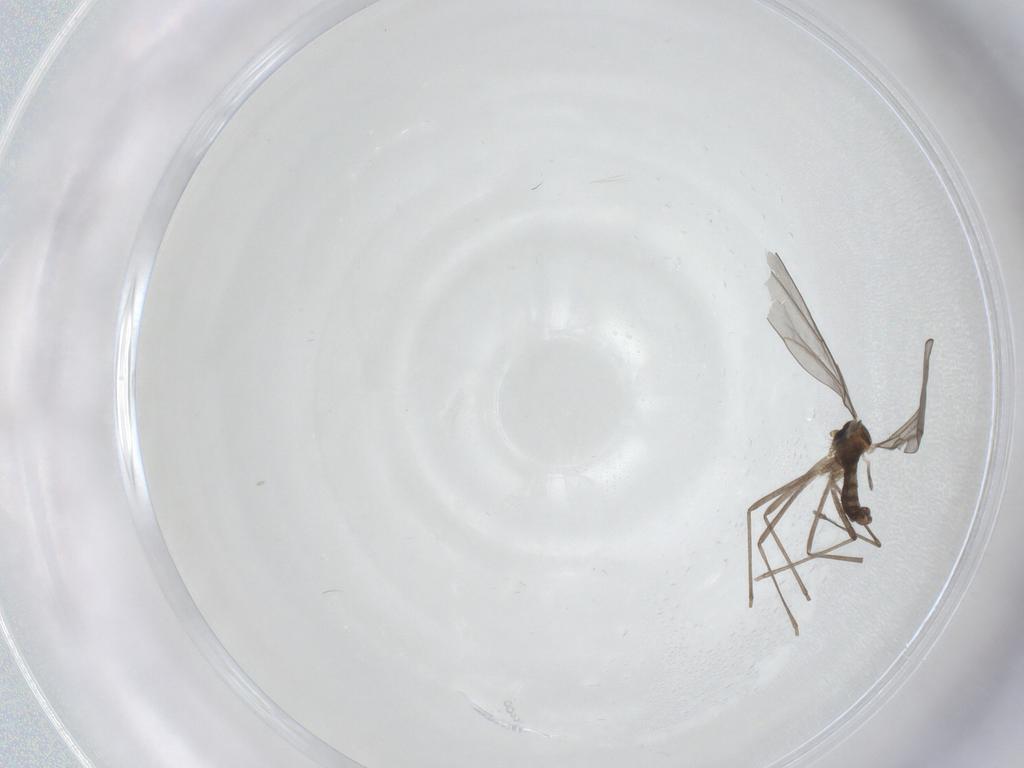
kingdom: Animalia
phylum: Arthropoda
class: Insecta
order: Diptera
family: Cecidomyiidae
